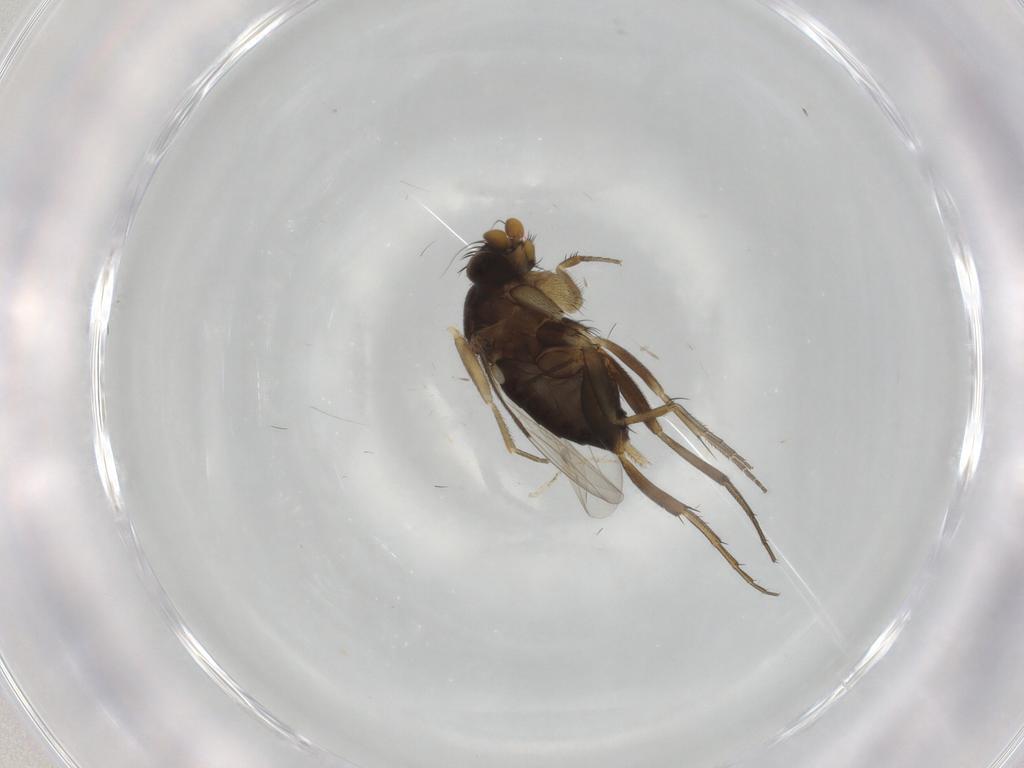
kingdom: Animalia
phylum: Arthropoda
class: Insecta
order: Diptera
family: Phoridae
